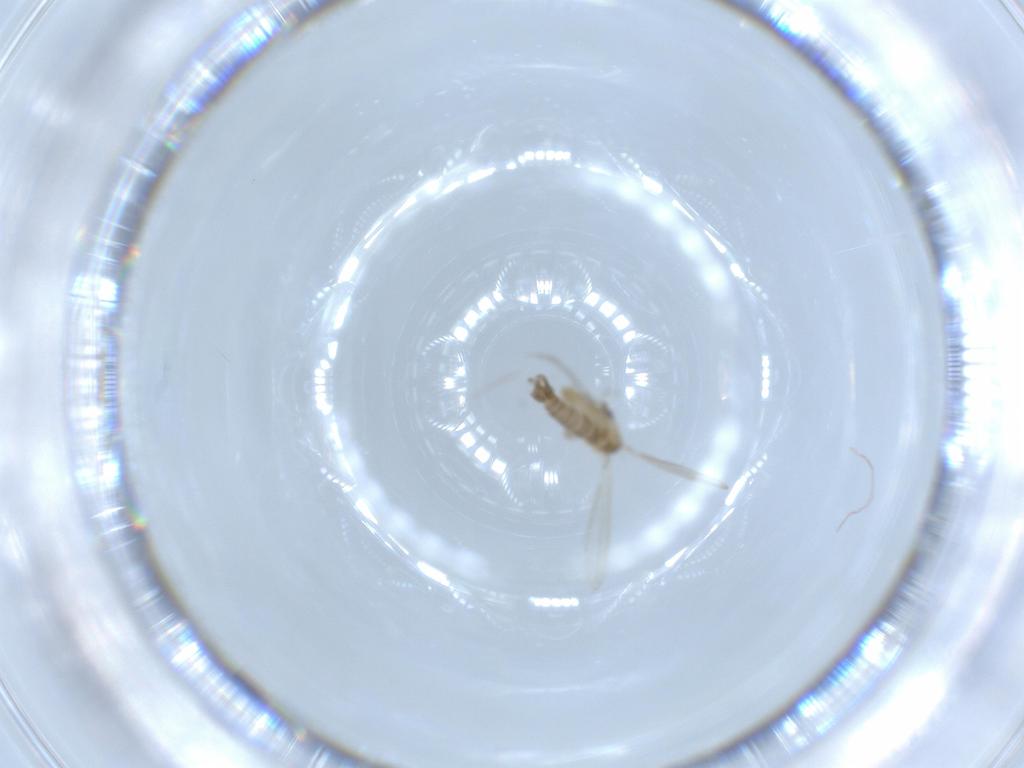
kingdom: Animalia
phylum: Arthropoda
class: Insecta
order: Diptera
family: Psychodidae
